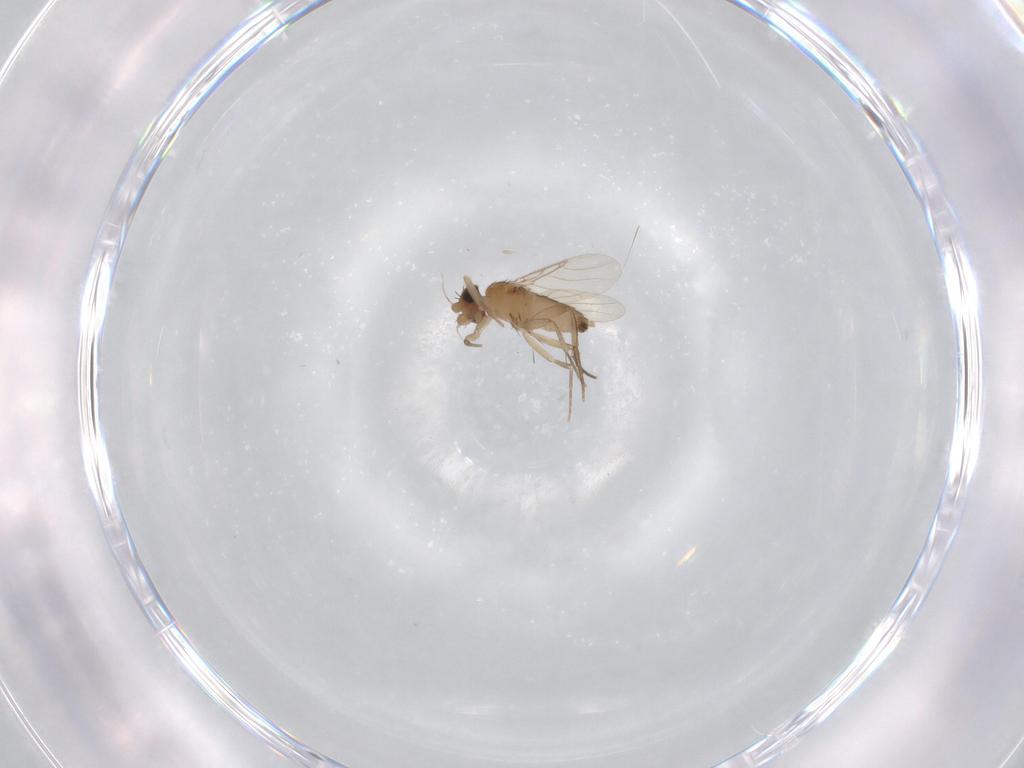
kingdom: Animalia
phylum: Arthropoda
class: Insecta
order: Diptera
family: Phoridae
